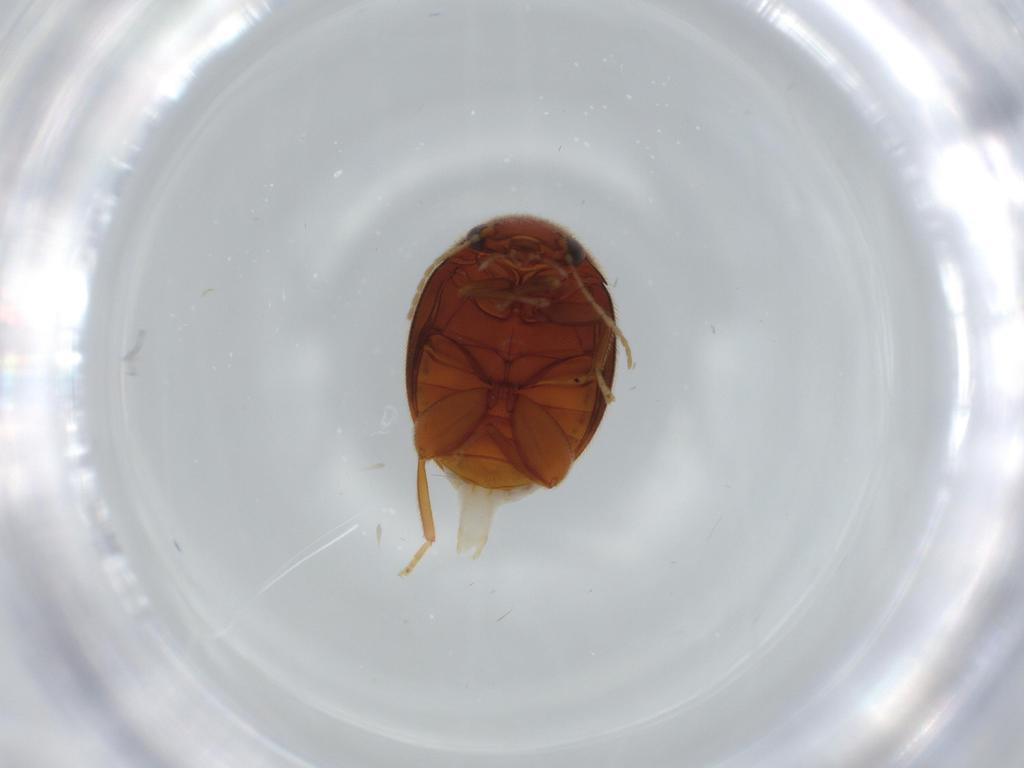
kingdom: Animalia
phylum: Arthropoda
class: Insecta
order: Coleoptera
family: Scirtidae
